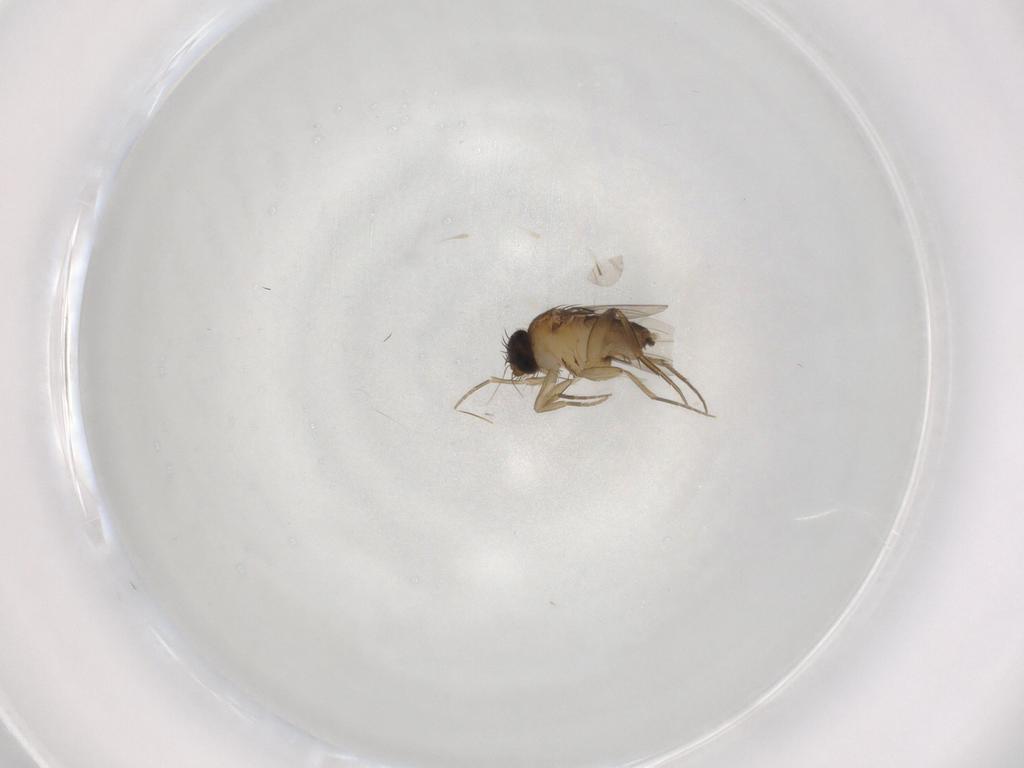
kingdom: Animalia
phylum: Arthropoda
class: Insecta
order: Diptera
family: Phoridae
